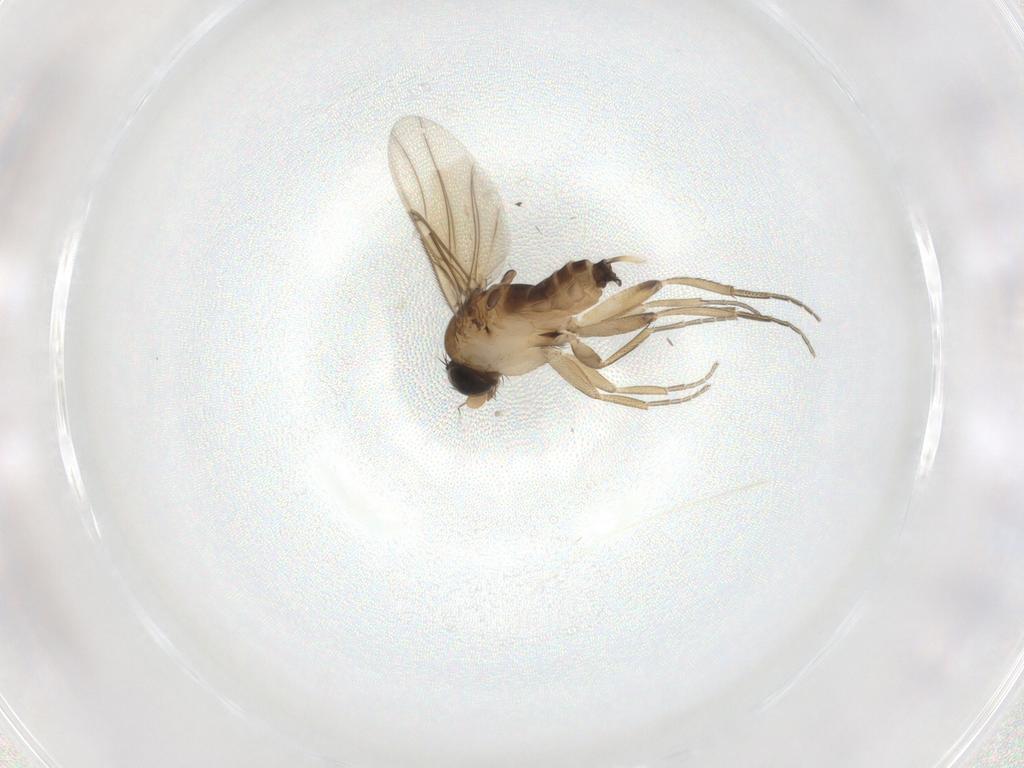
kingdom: Animalia
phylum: Arthropoda
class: Insecta
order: Diptera
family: Phoridae
